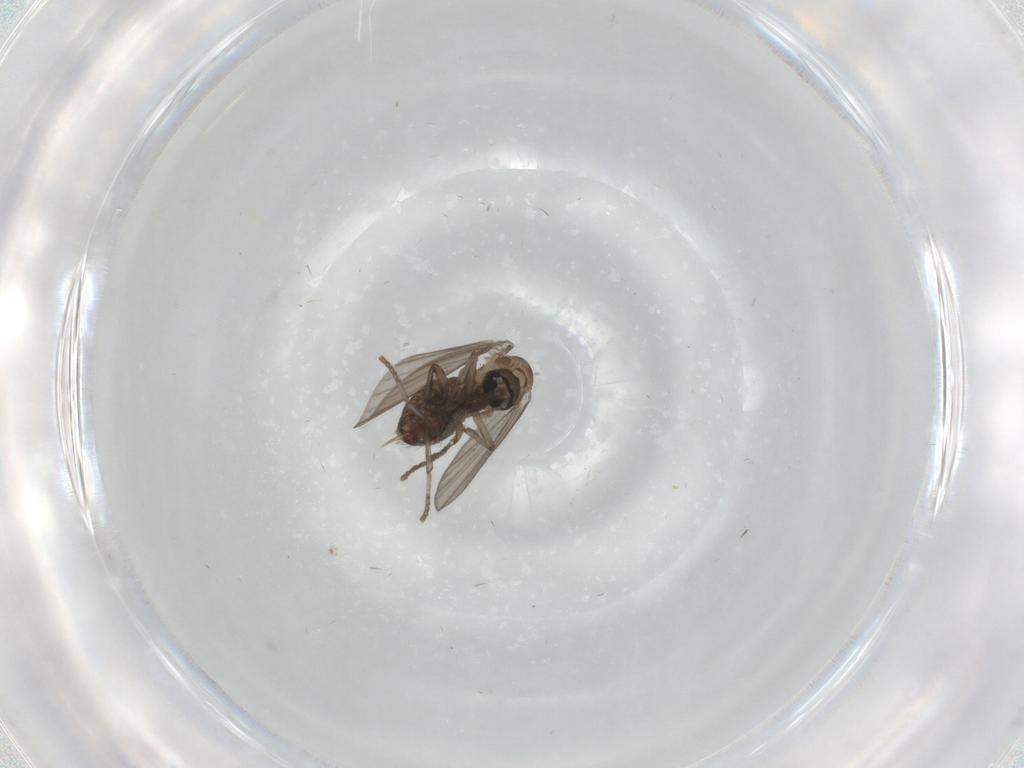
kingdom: Animalia
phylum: Arthropoda
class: Insecta
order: Diptera
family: Psychodidae
